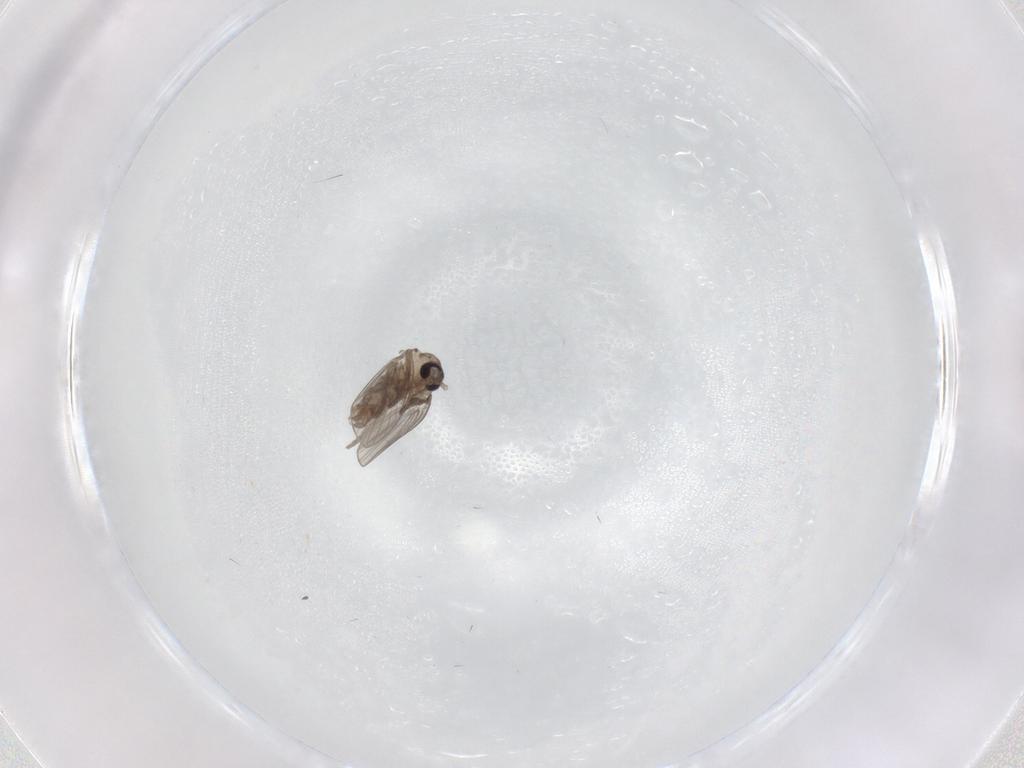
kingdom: Animalia
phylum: Arthropoda
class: Insecta
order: Diptera
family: Psychodidae
